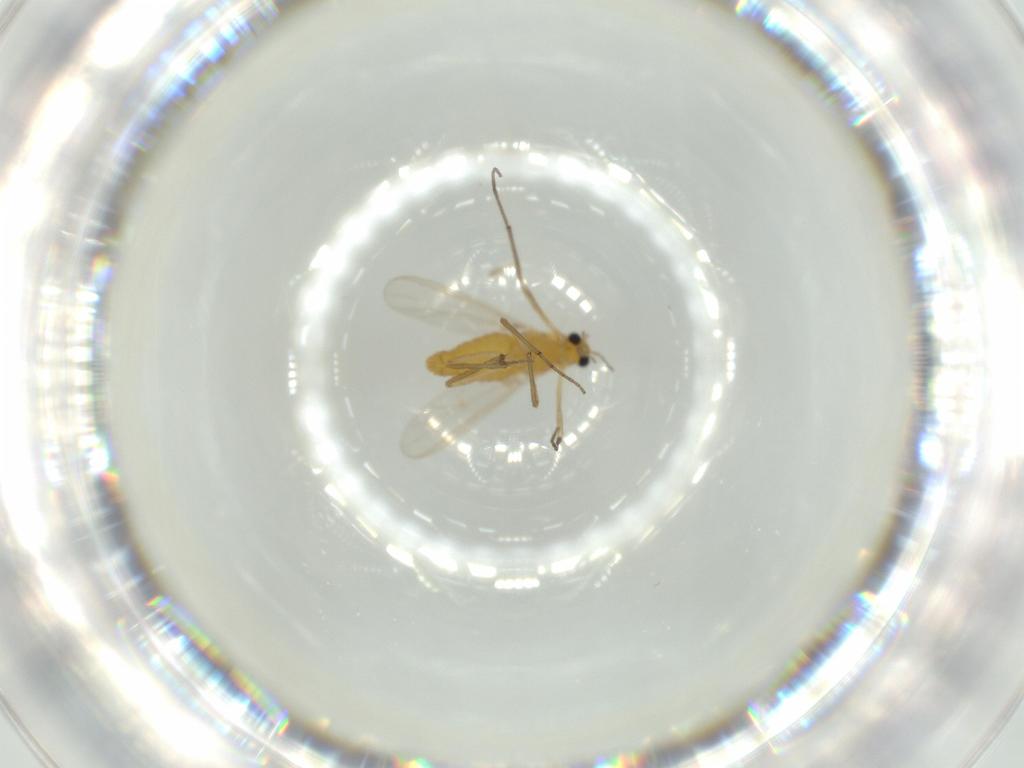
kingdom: Animalia
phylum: Arthropoda
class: Insecta
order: Diptera
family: Chironomidae
